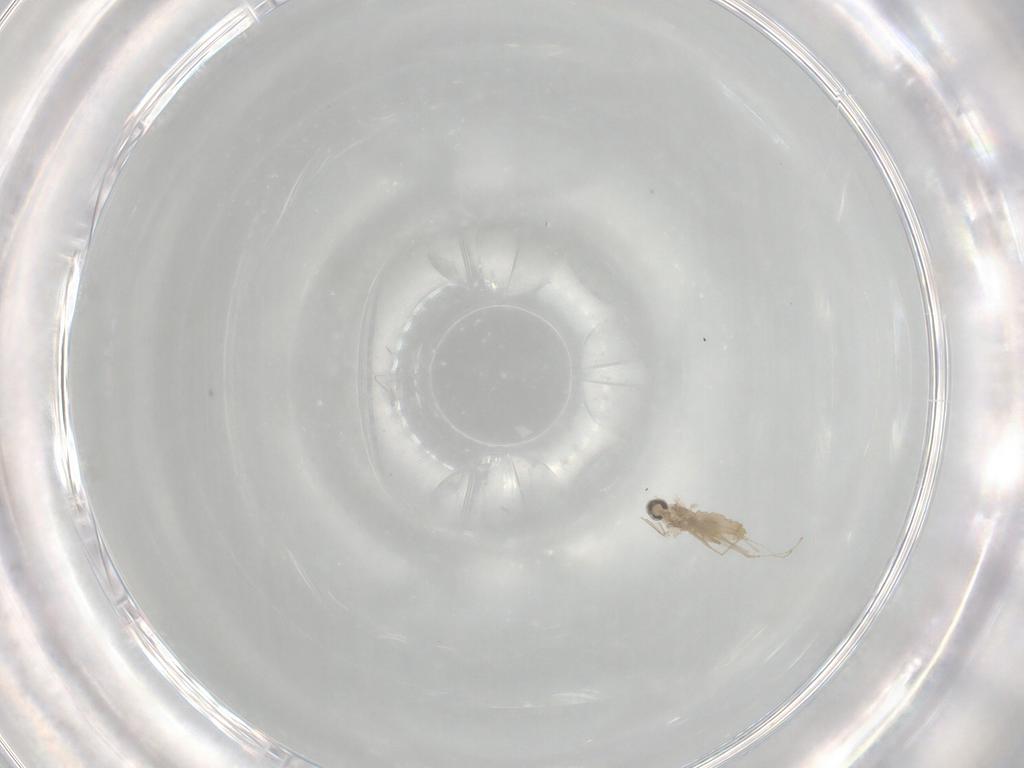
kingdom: Animalia
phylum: Arthropoda
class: Insecta
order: Diptera
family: Cecidomyiidae
